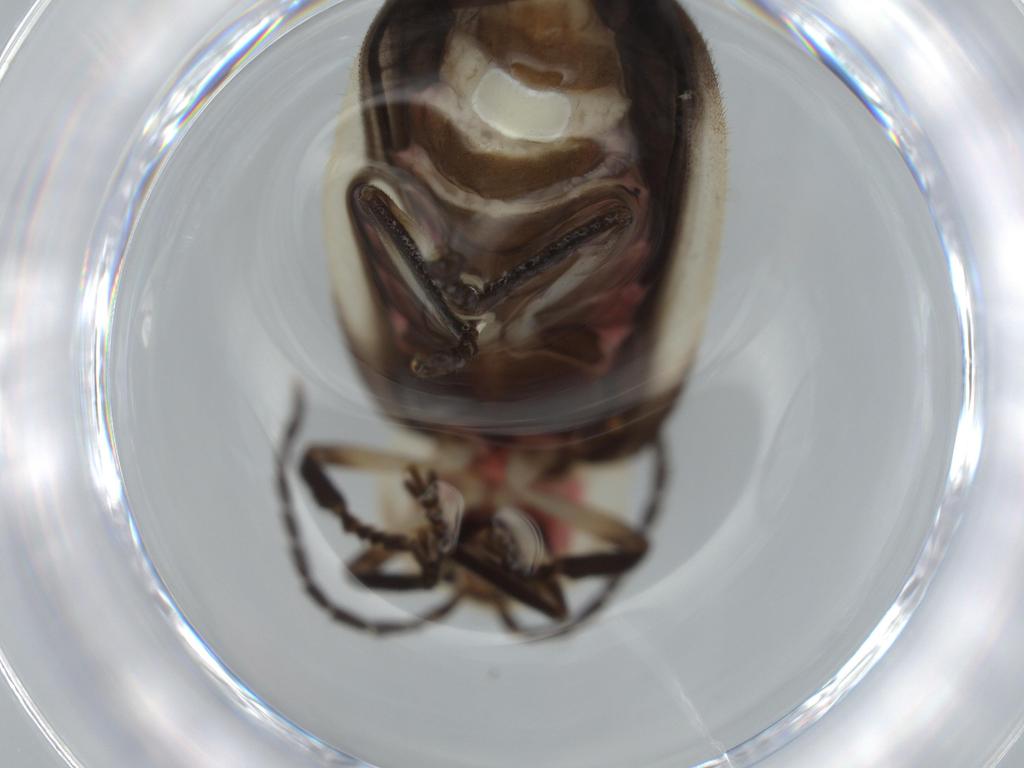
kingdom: Animalia
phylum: Arthropoda
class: Insecta
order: Coleoptera
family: Lampyridae
